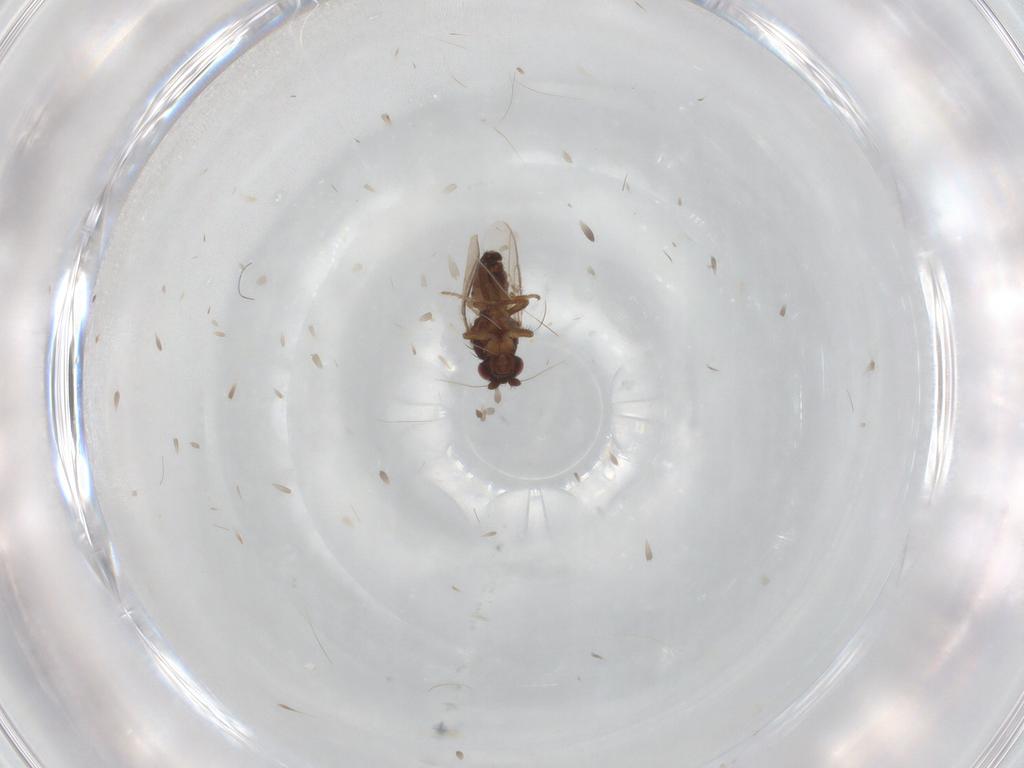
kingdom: Animalia
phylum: Arthropoda
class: Insecta
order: Diptera
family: Sphaeroceridae
